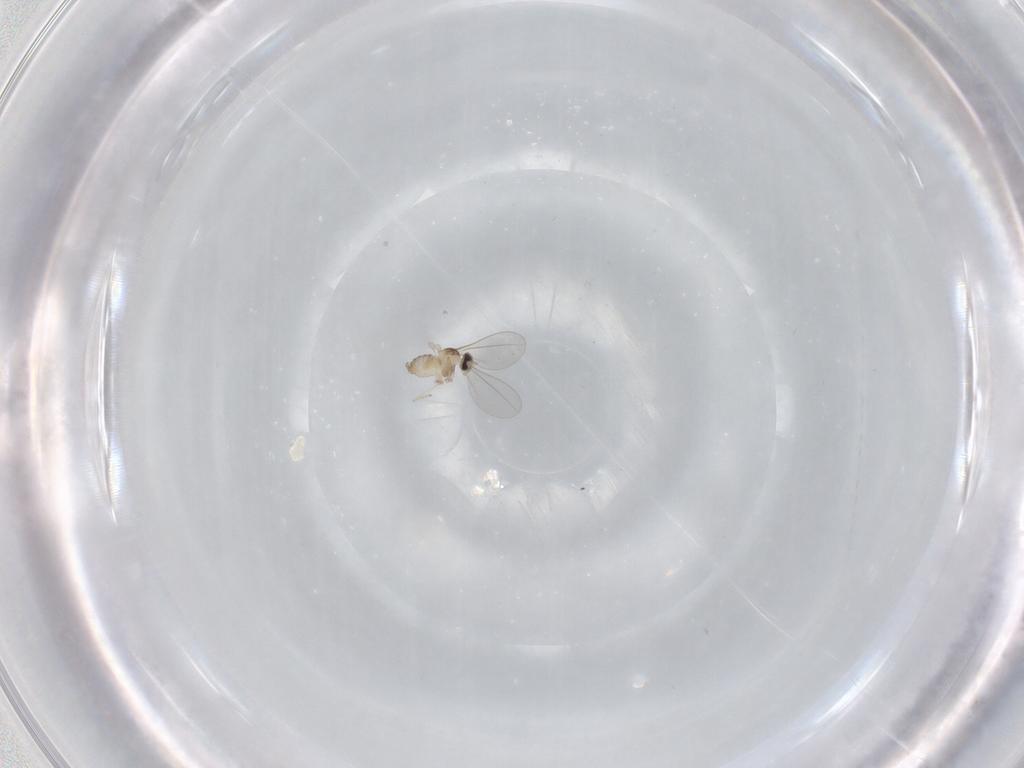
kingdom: Animalia
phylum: Arthropoda
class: Insecta
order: Diptera
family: Cecidomyiidae
